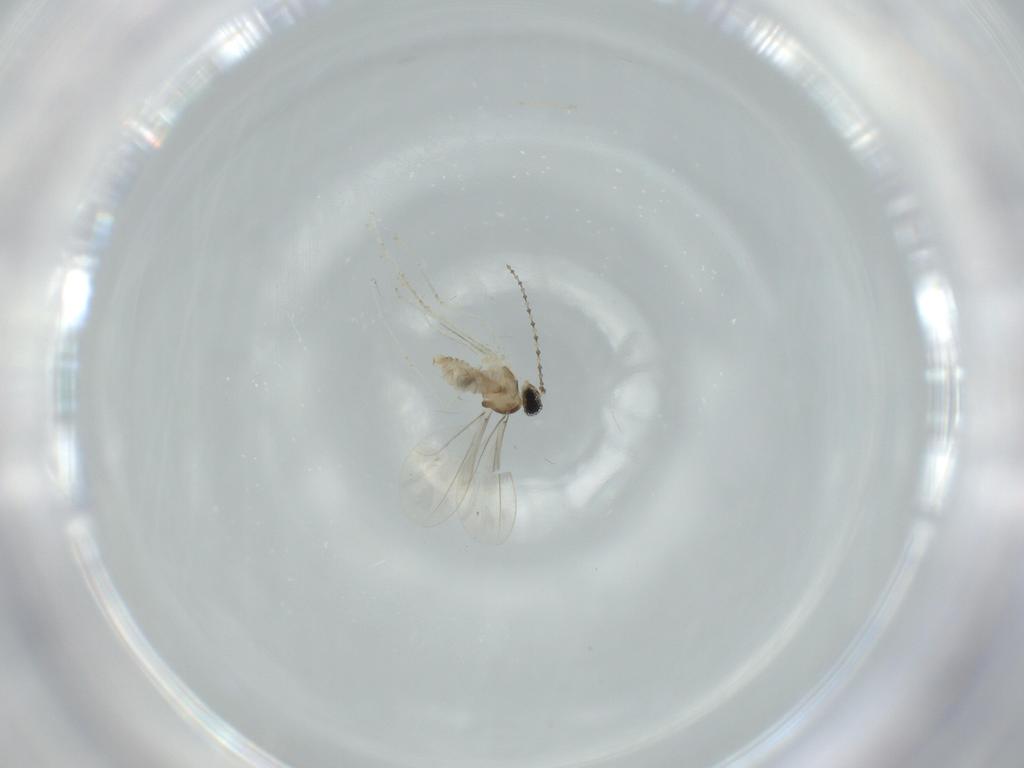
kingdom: Animalia
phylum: Arthropoda
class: Insecta
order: Diptera
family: Cecidomyiidae
